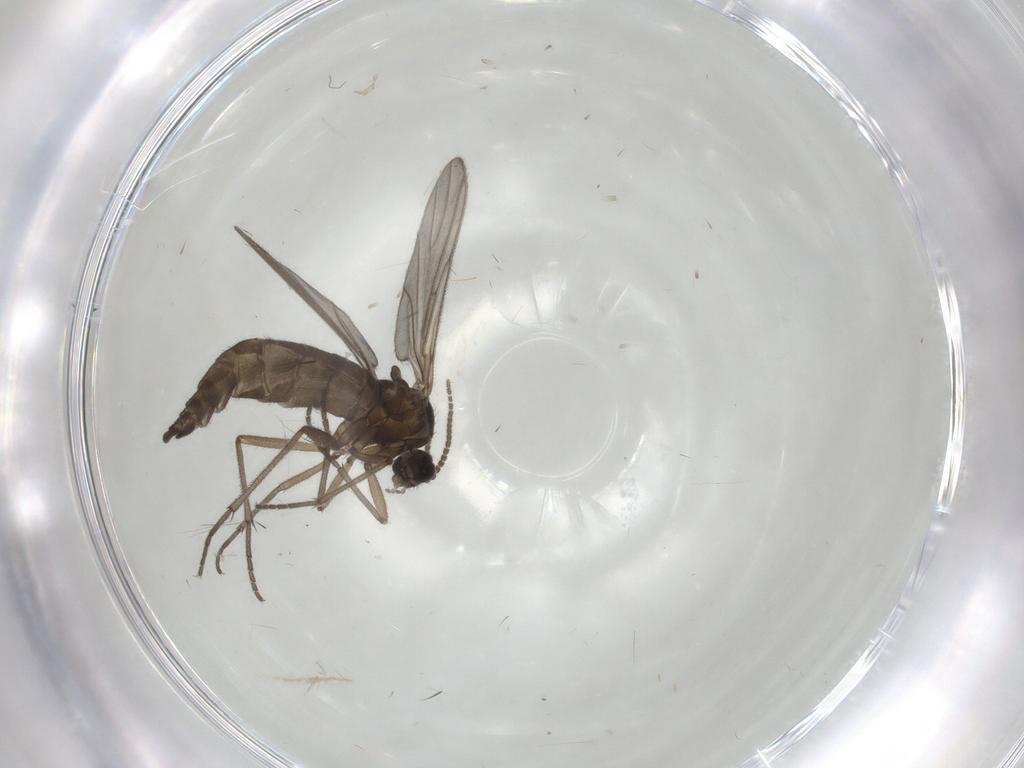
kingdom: Animalia
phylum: Arthropoda
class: Insecta
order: Diptera
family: Sciaridae
